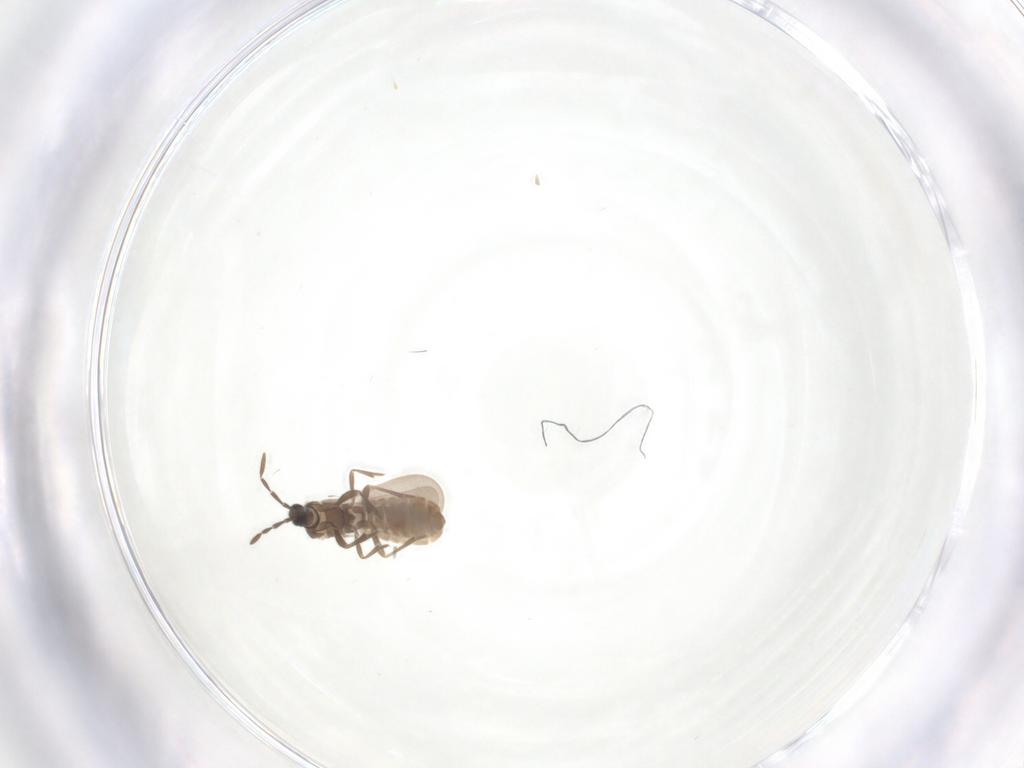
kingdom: Animalia
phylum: Arthropoda
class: Insecta
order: Hemiptera
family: Enicocephalidae
